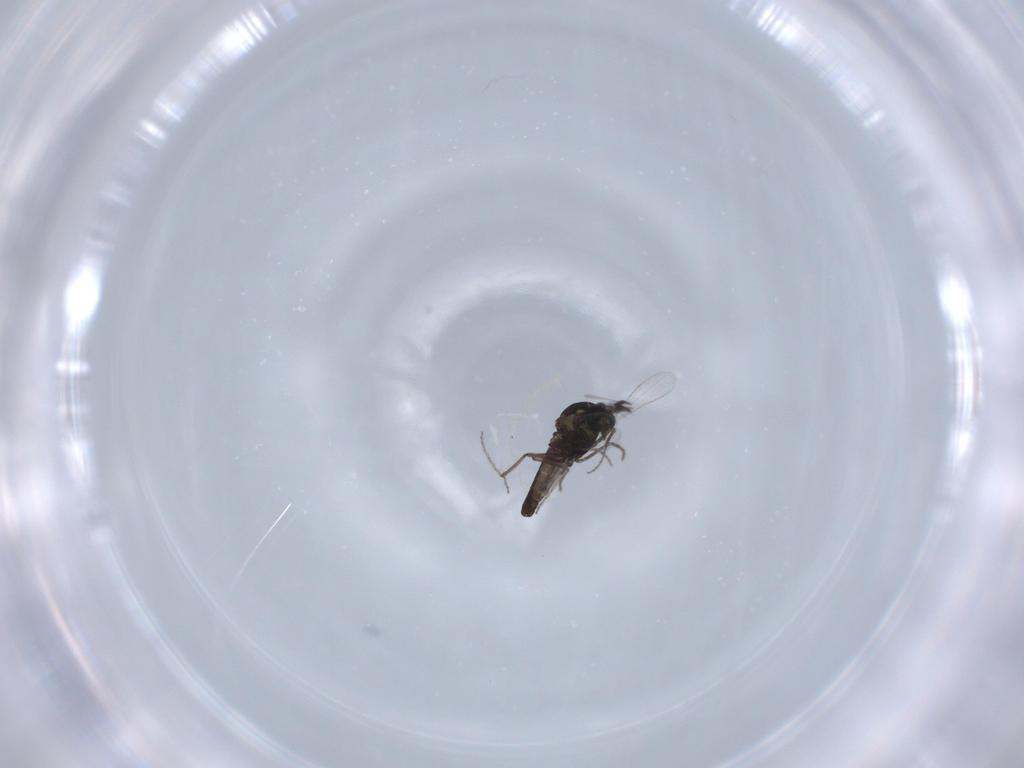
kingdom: Animalia
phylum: Arthropoda
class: Insecta
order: Diptera
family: Ceratopogonidae
